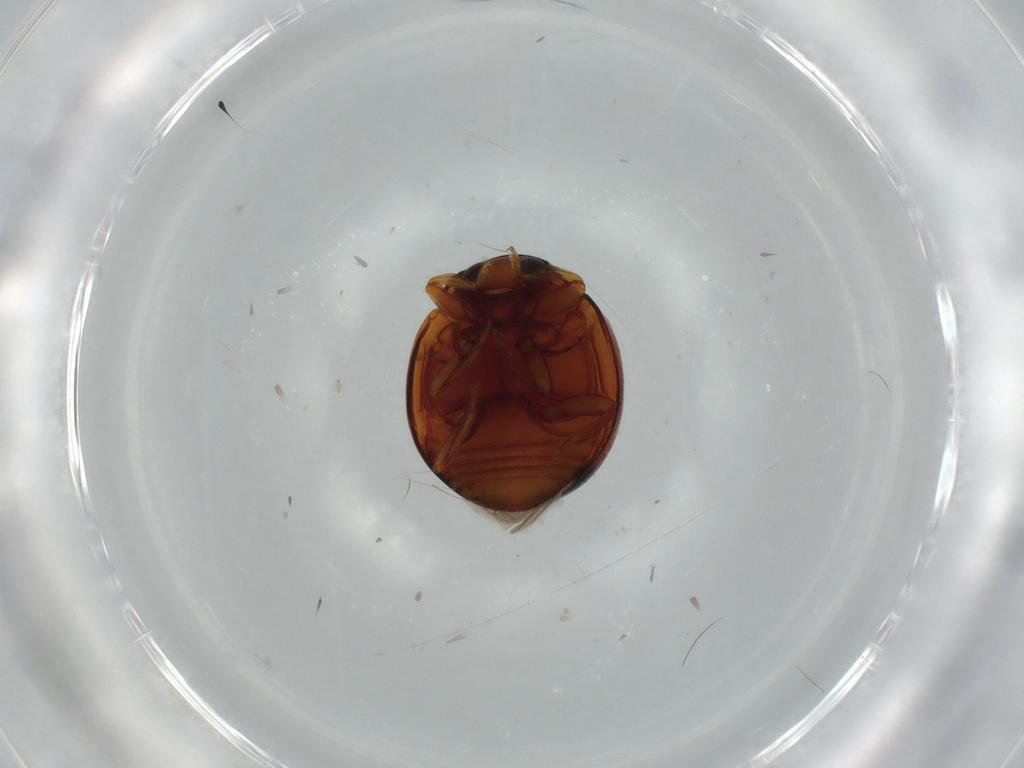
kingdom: Animalia
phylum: Arthropoda
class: Insecta
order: Coleoptera
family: Coccinellidae
